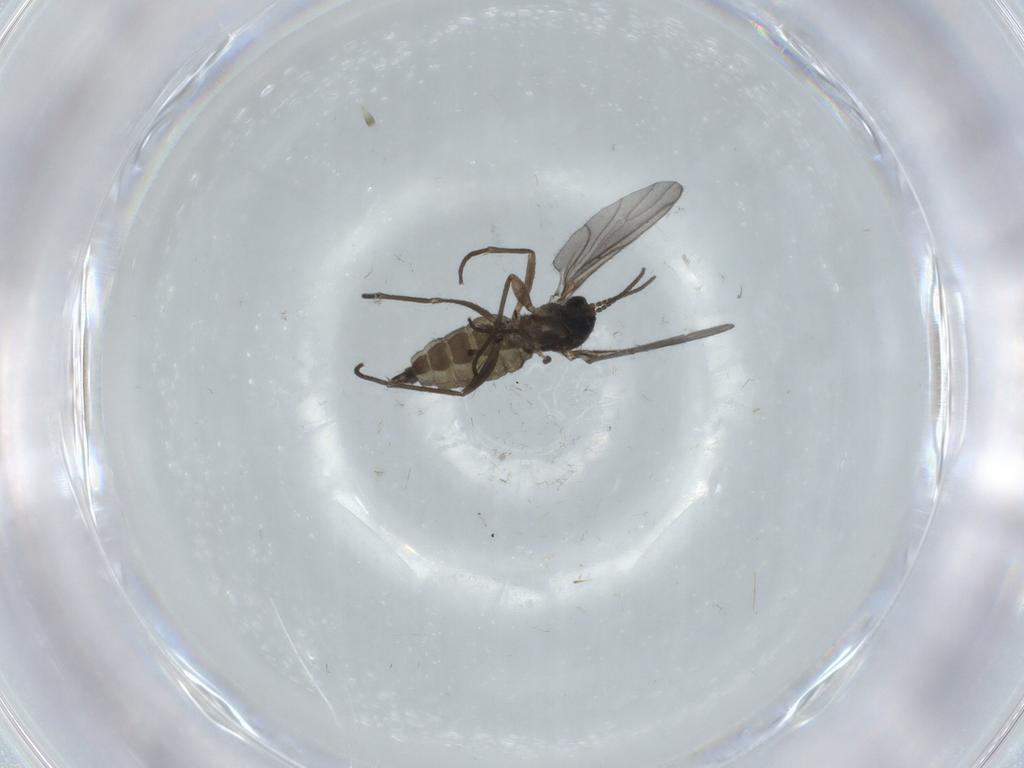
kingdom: Animalia
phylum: Arthropoda
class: Insecta
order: Diptera
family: Sciaridae
